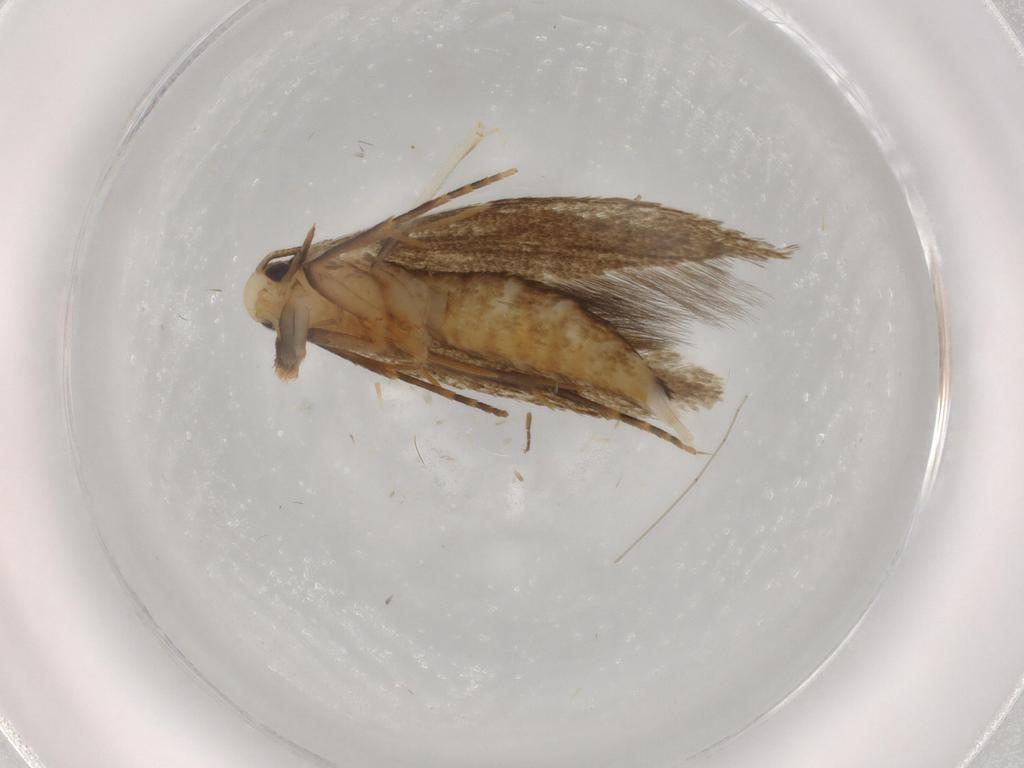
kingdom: Animalia
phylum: Arthropoda
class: Insecta
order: Lepidoptera
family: Tineidae
